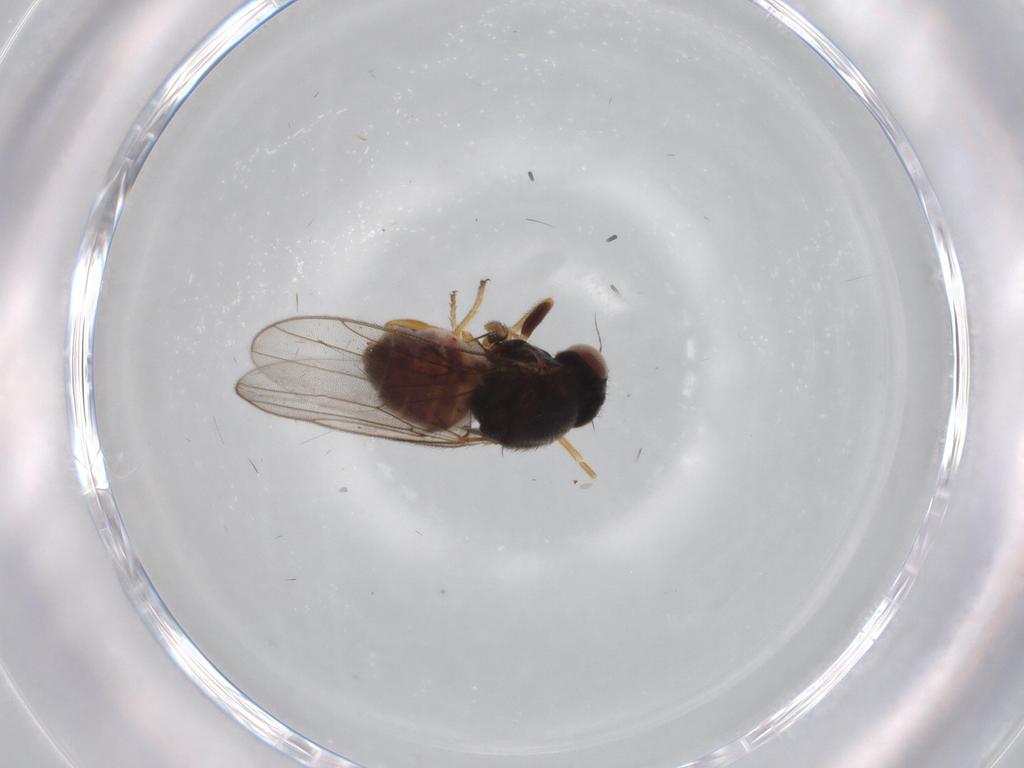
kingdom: Animalia
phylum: Arthropoda
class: Insecta
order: Diptera
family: Chloropidae
